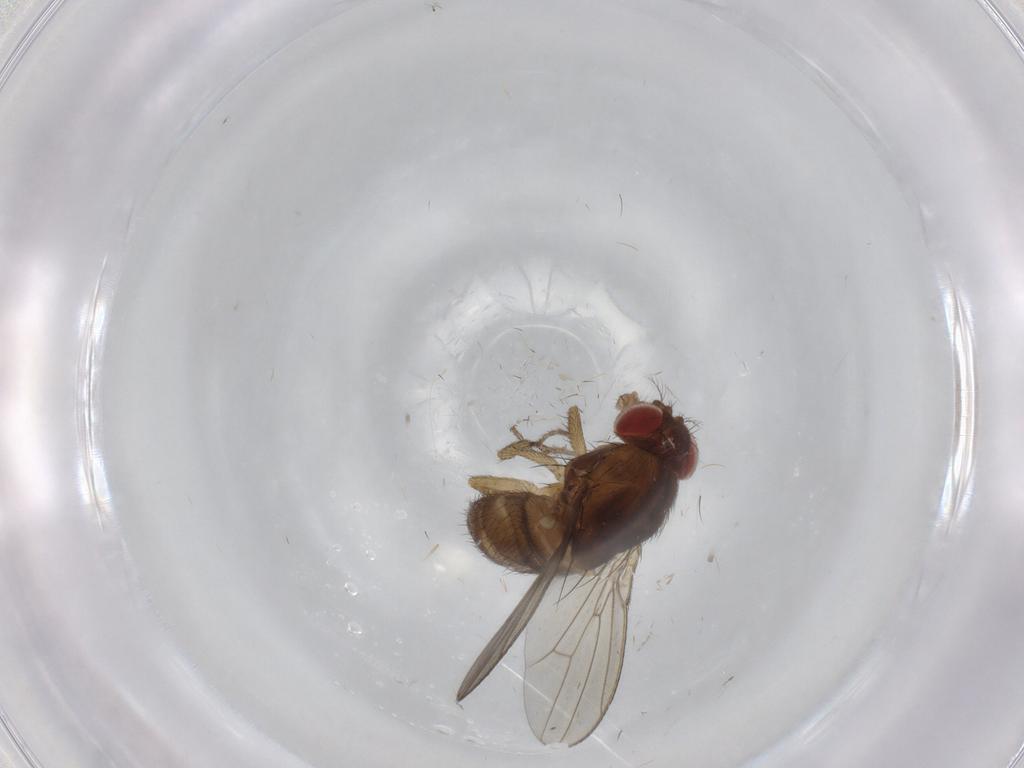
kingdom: Animalia
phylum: Arthropoda
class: Insecta
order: Diptera
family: Drosophilidae
